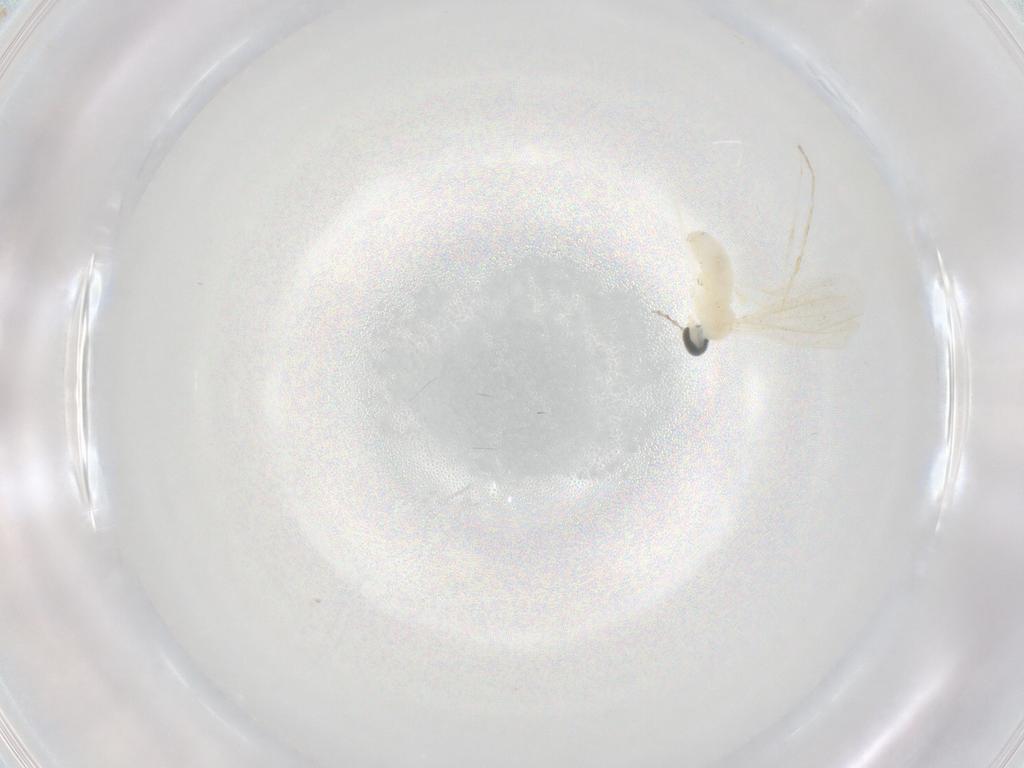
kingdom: Animalia
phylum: Arthropoda
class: Insecta
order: Diptera
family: Cecidomyiidae
